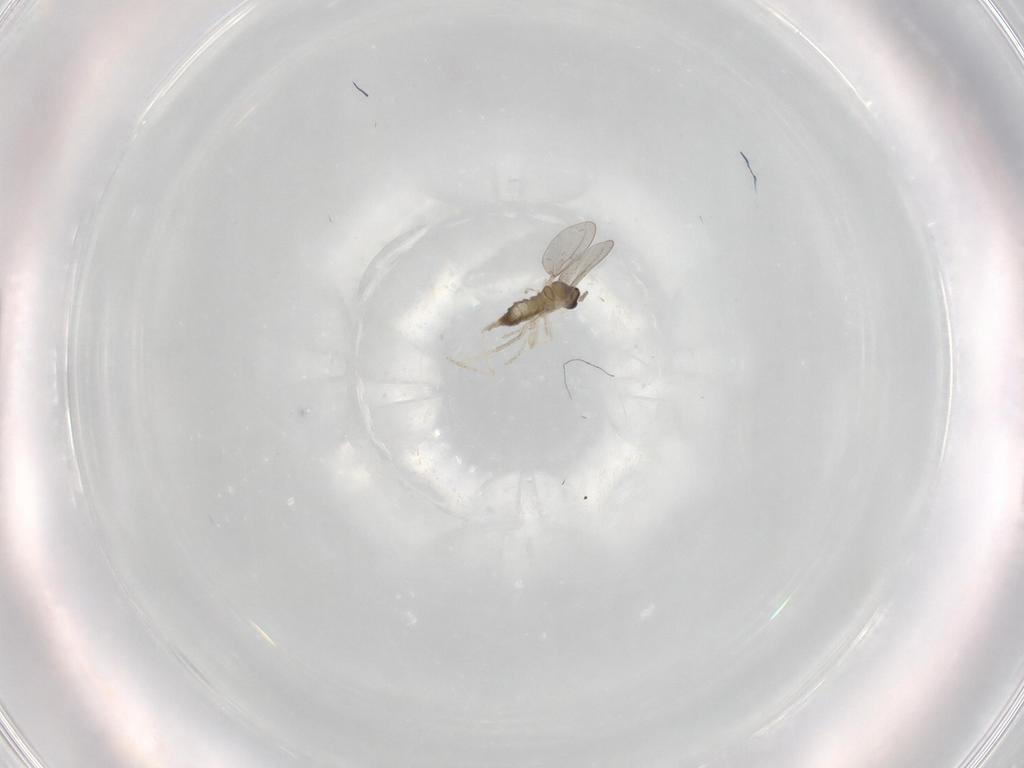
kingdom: Animalia
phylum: Arthropoda
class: Insecta
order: Diptera
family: Cecidomyiidae
